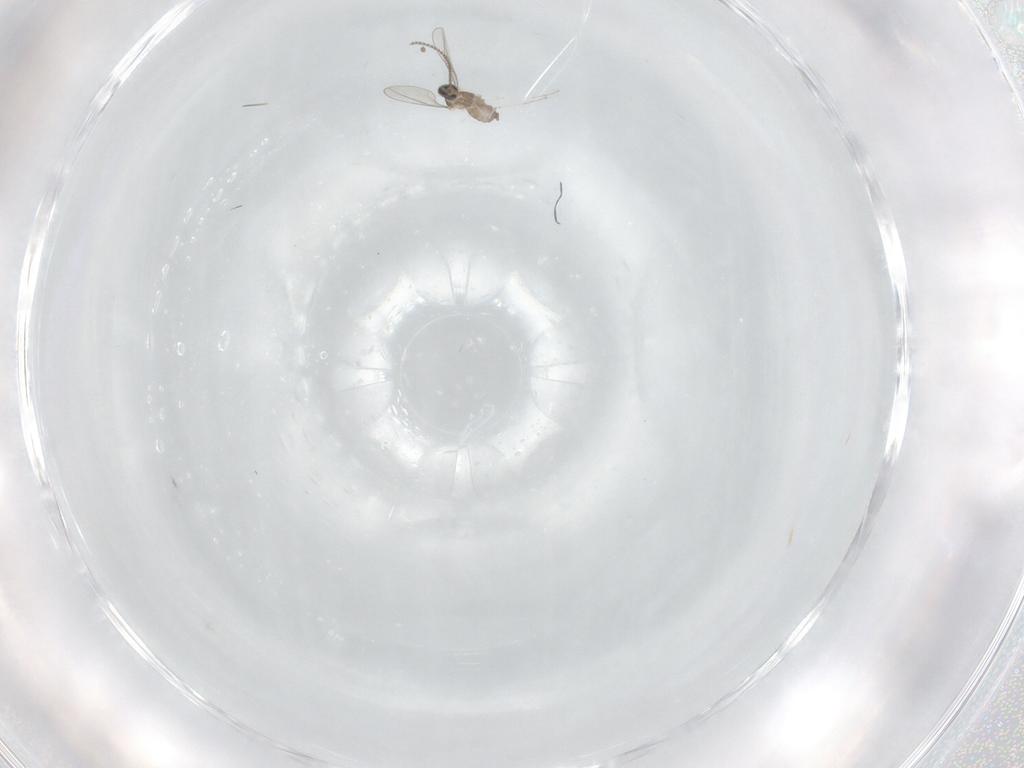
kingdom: Animalia
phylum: Arthropoda
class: Insecta
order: Diptera
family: Cecidomyiidae
